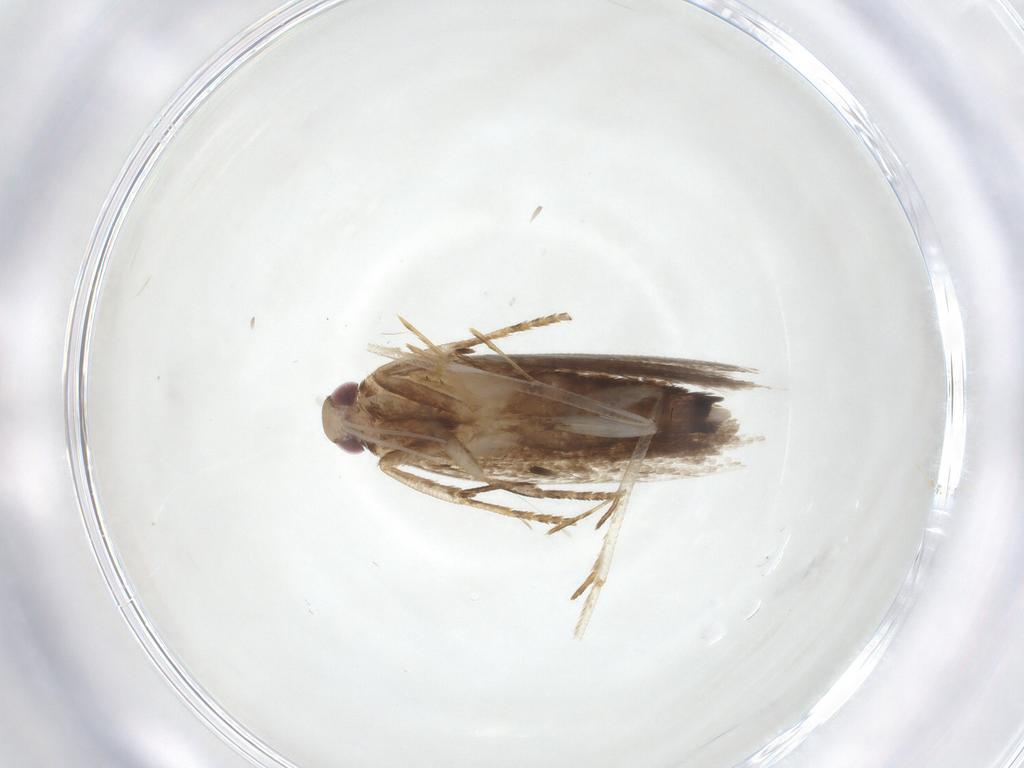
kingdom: Animalia
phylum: Arthropoda
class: Insecta
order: Lepidoptera
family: Gelechiidae
